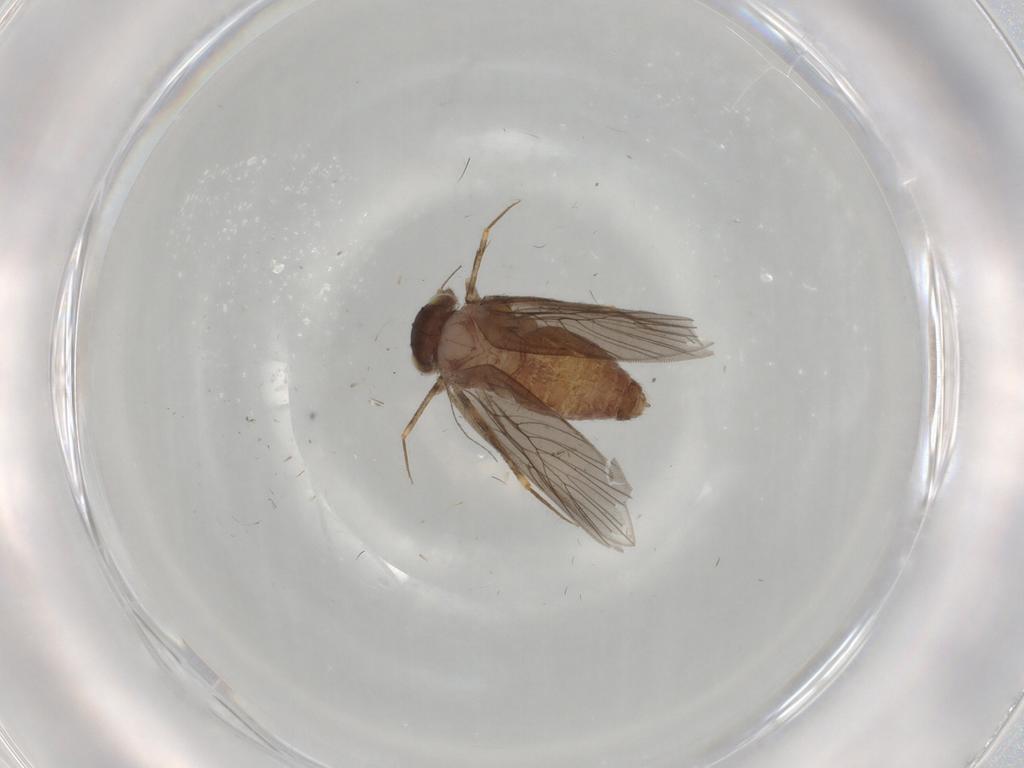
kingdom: Animalia
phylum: Arthropoda
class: Insecta
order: Psocodea
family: Lepidopsocidae
